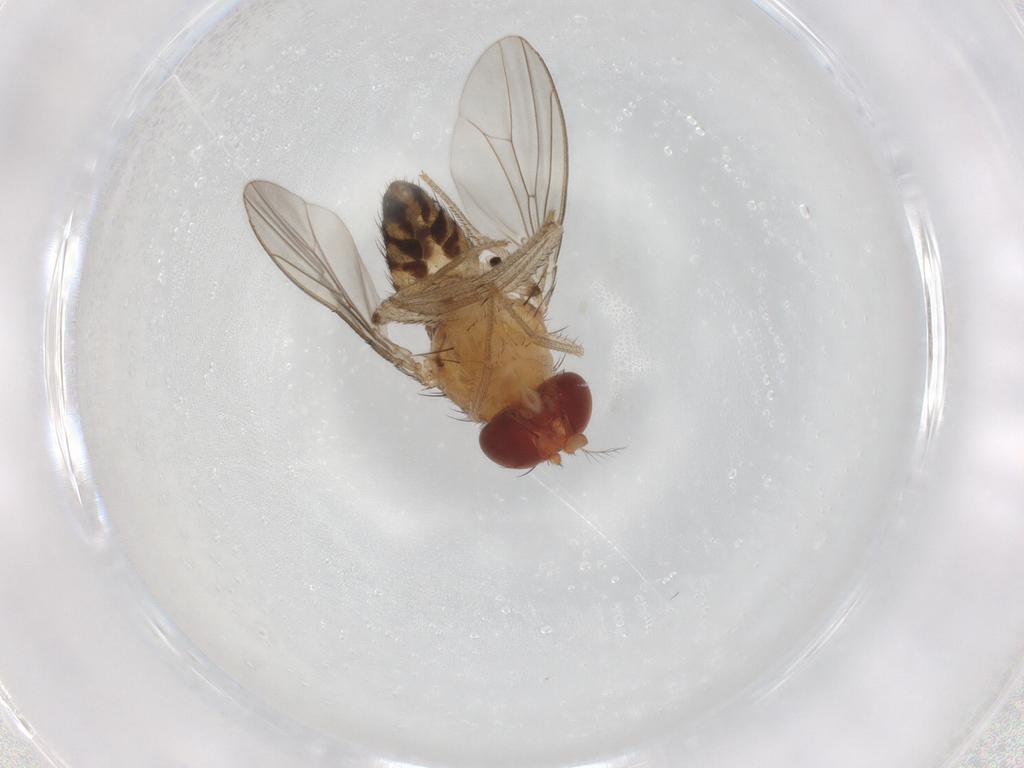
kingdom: Animalia
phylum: Arthropoda
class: Insecta
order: Diptera
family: Drosophilidae
